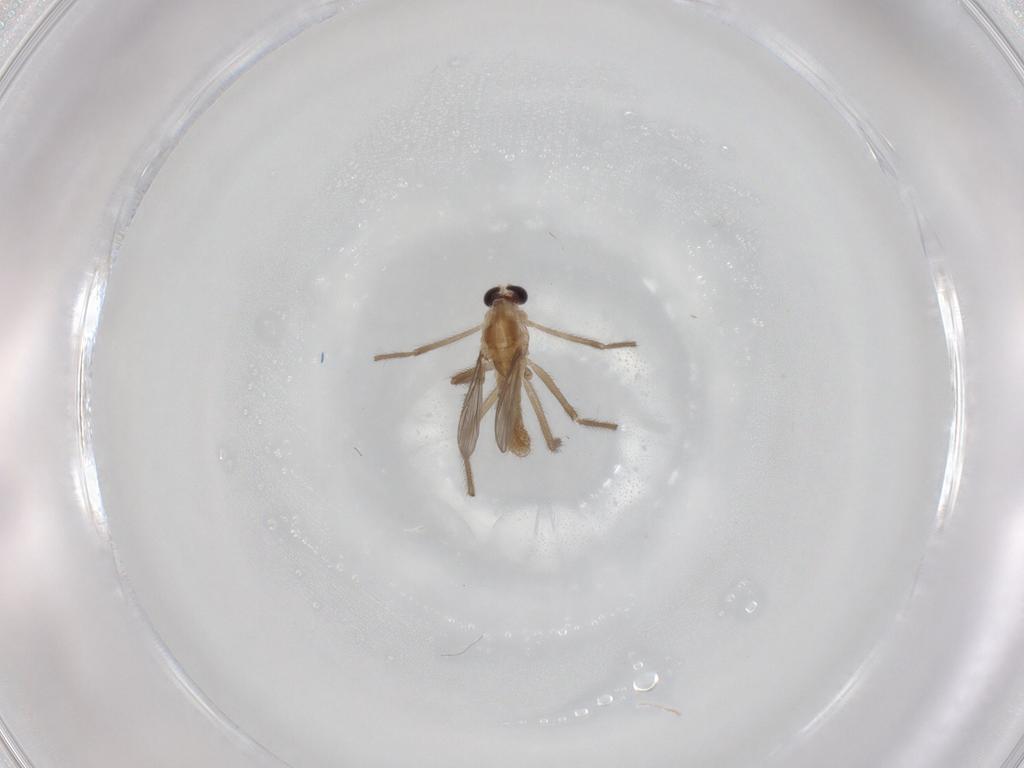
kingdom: Animalia
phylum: Arthropoda
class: Insecta
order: Diptera
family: Chironomidae
